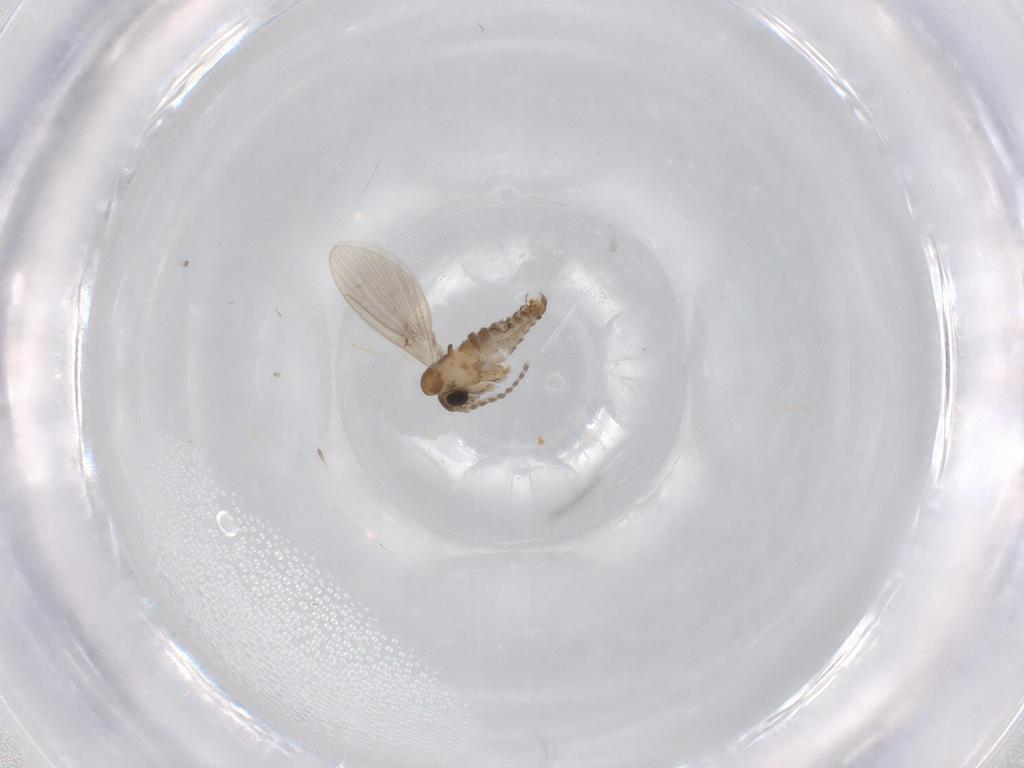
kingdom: Animalia
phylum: Arthropoda
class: Insecta
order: Diptera
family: Psychodidae
